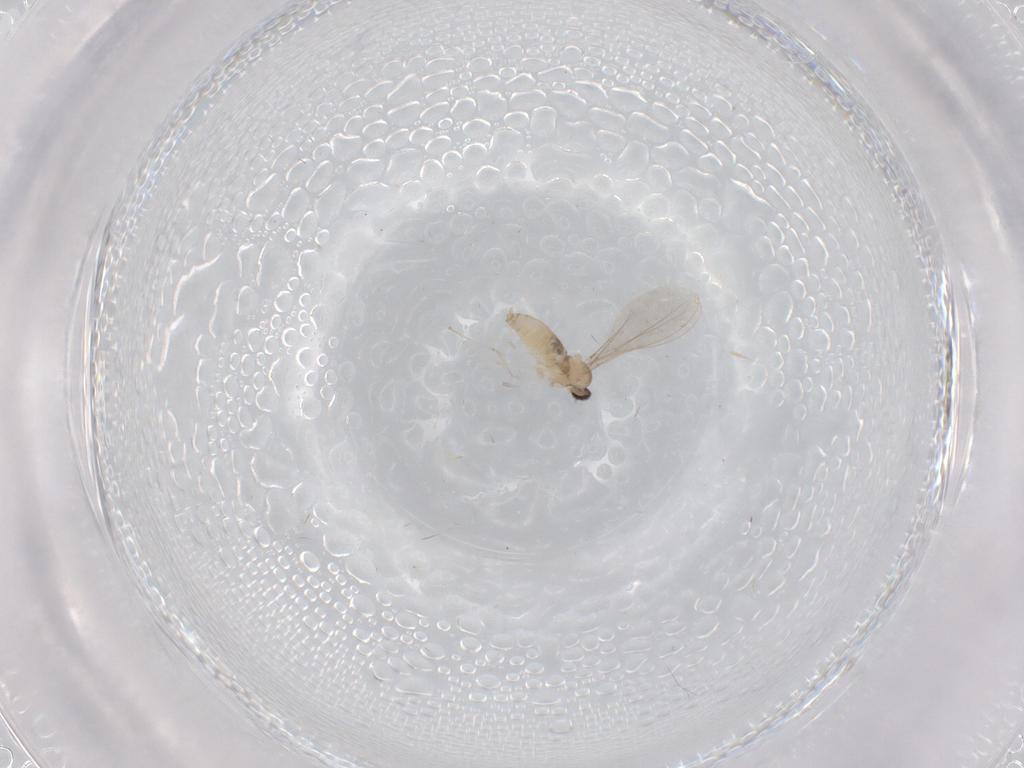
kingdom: Animalia
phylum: Arthropoda
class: Insecta
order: Diptera
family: Cecidomyiidae
